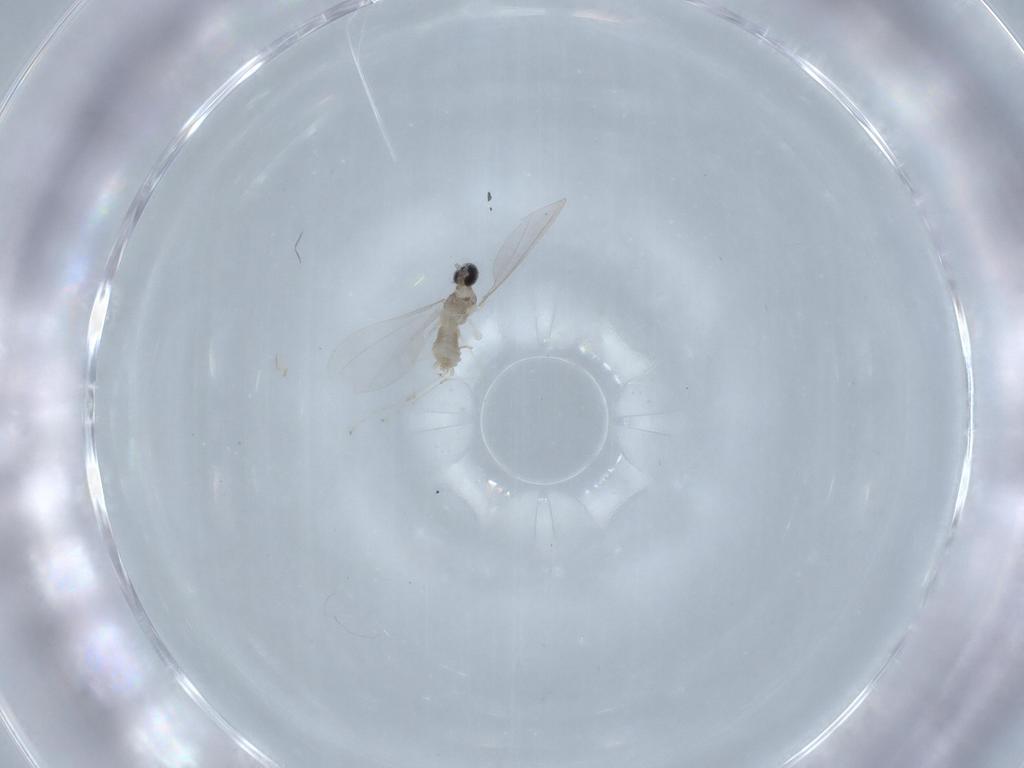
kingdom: Animalia
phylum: Arthropoda
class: Insecta
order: Diptera
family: Cecidomyiidae
